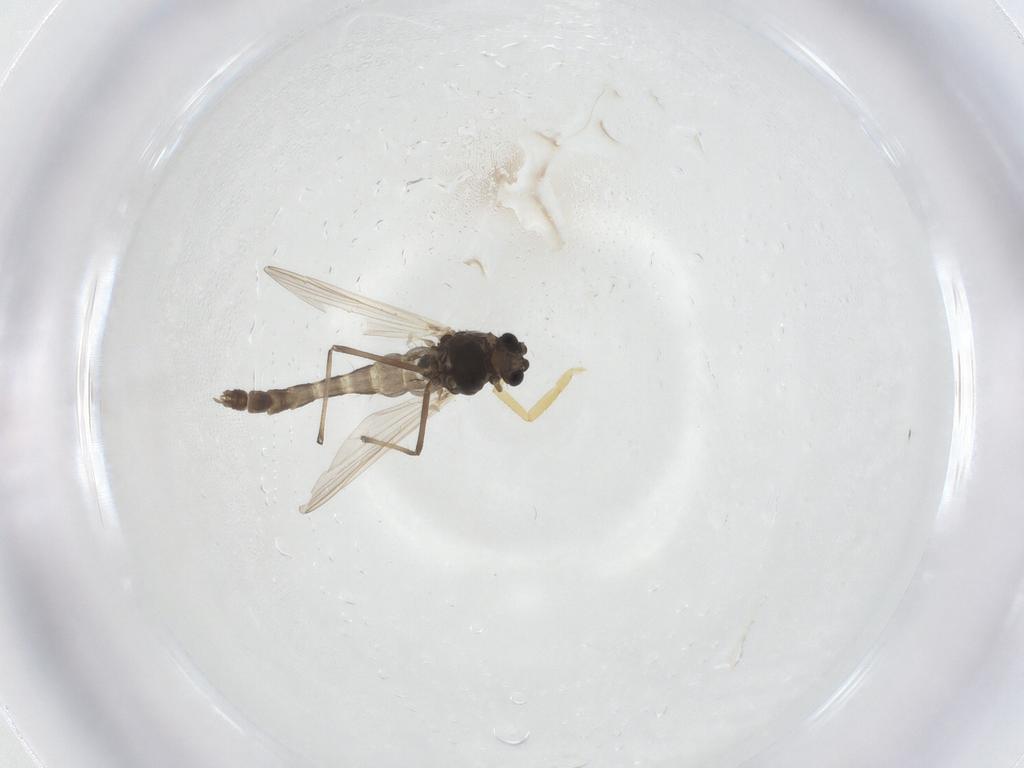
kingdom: Animalia
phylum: Arthropoda
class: Insecta
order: Diptera
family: Chironomidae
